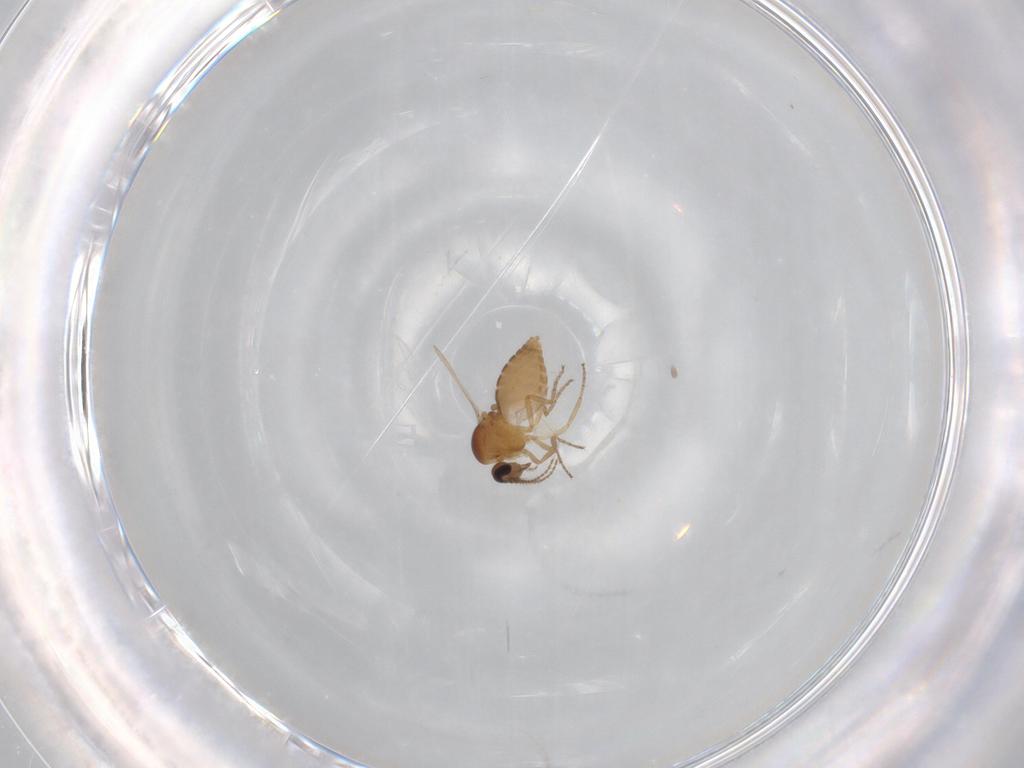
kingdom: Animalia
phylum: Arthropoda
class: Insecta
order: Diptera
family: Ceratopogonidae
